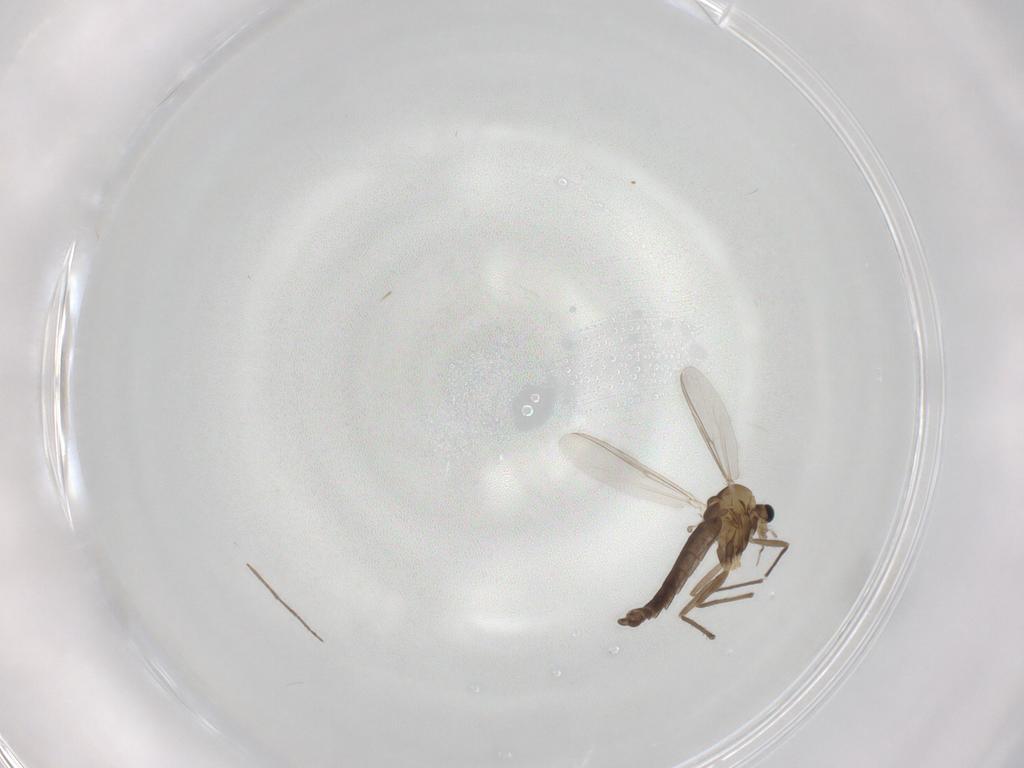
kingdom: Animalia
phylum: Arthropoda
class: Insecta
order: Diptera
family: Chironomidae
